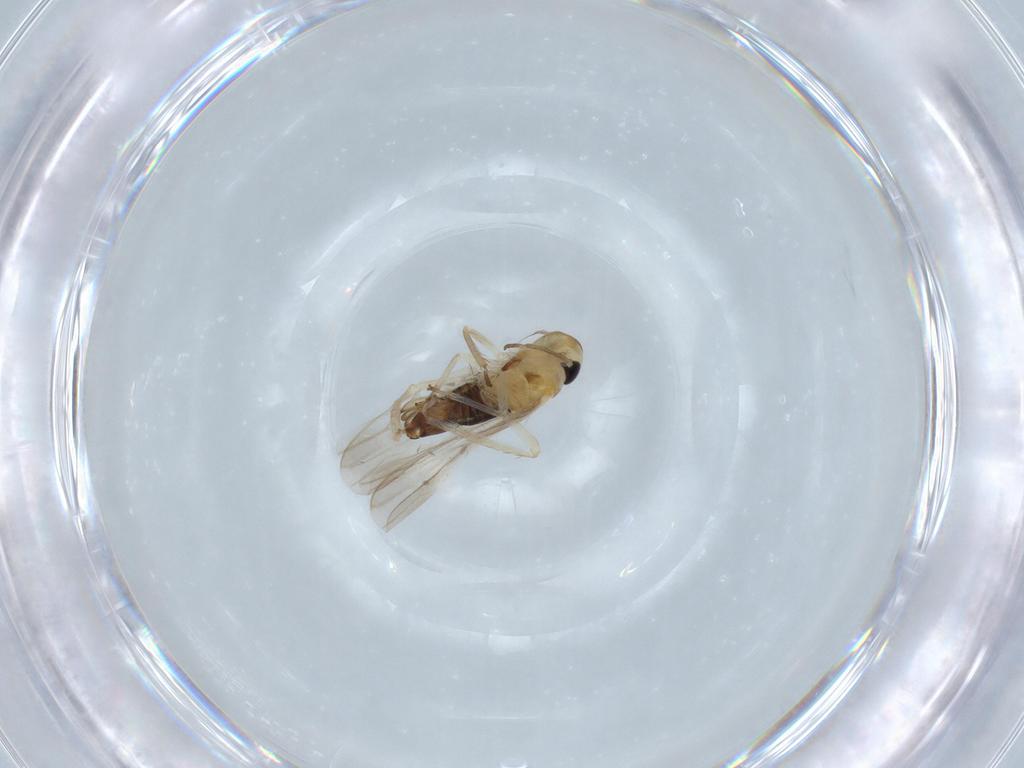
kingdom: Animalia
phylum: Arthropoda
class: Insecta
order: Hemiptera
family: Cicadellidae
